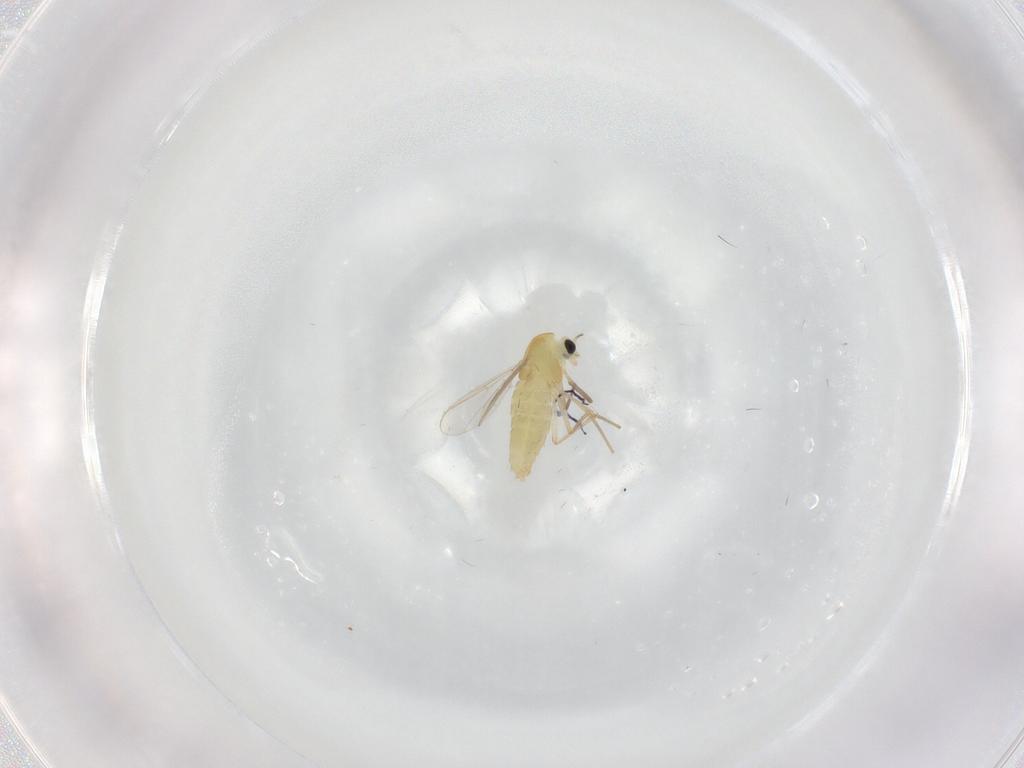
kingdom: Animalia
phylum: Arthropoda
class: Insecta
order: Diptera
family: Chironomidae
